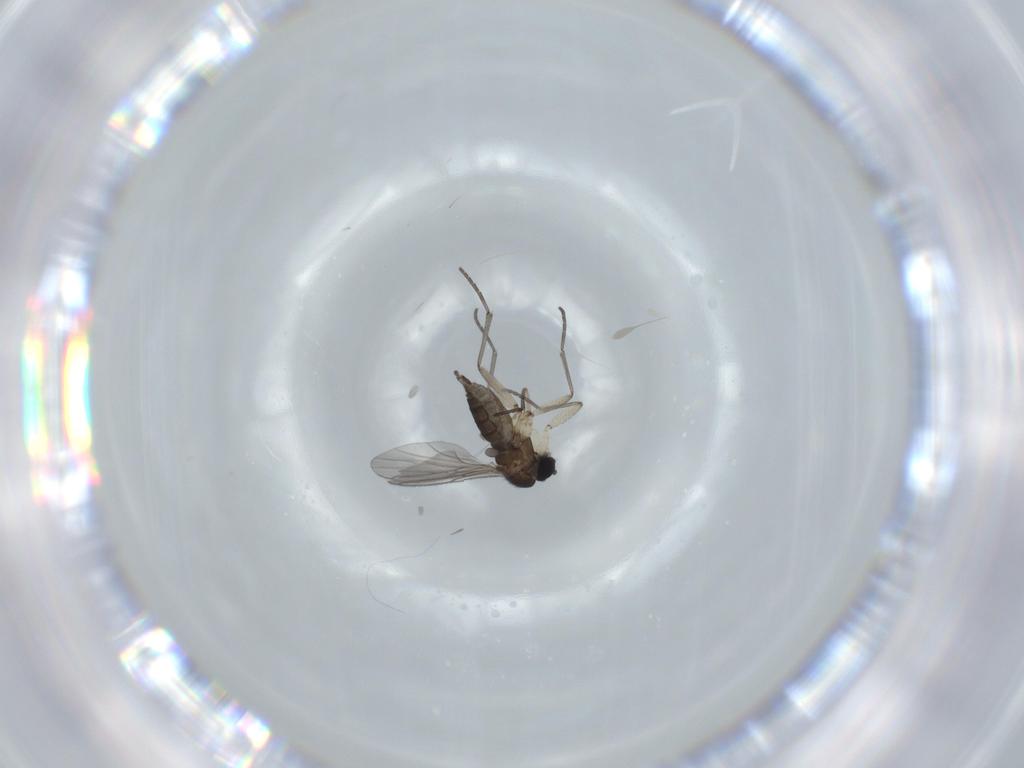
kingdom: Animalia
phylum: Arthropoda
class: Insecta
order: Diptera
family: Sciaridae
